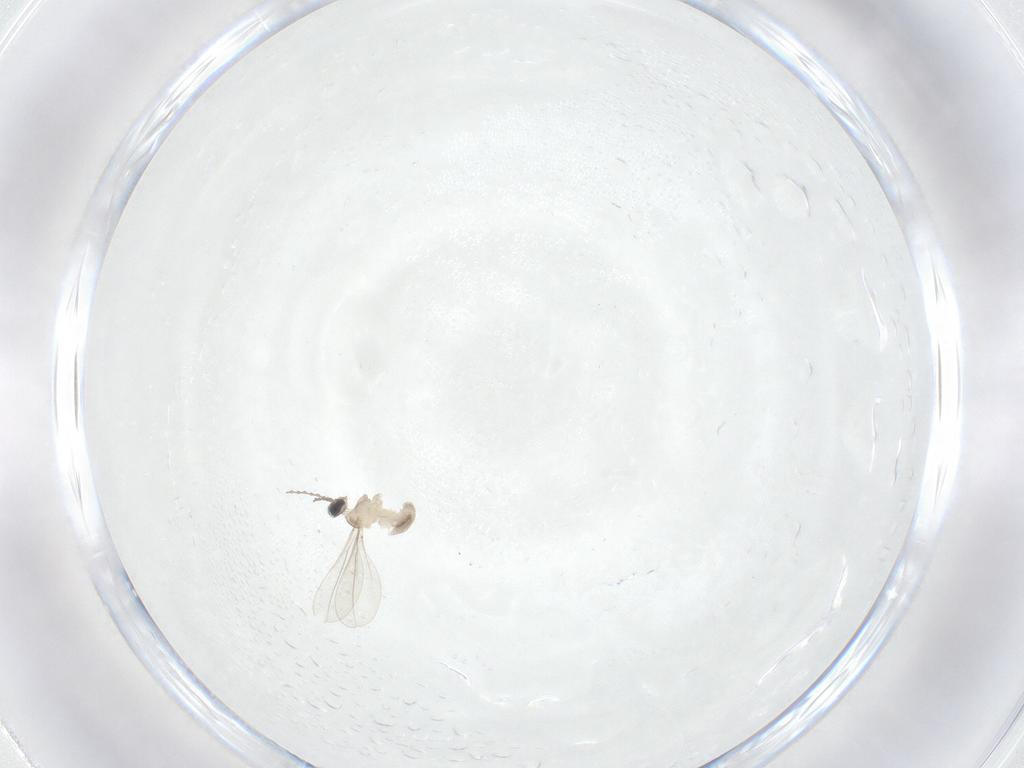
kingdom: Animalia
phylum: Arthropoda
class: Insecta
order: Diptera
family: Cecidomyiidae
